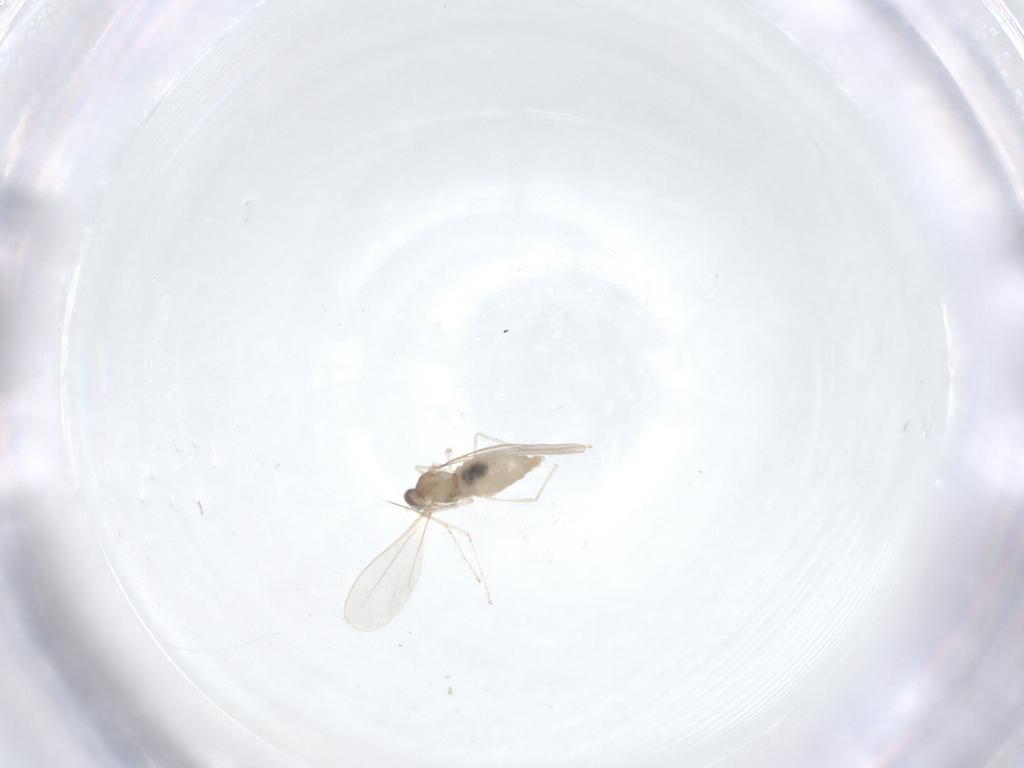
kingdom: Animalia
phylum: Arthropoda
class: Insecta
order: Diptera
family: Cecidomyiidae
